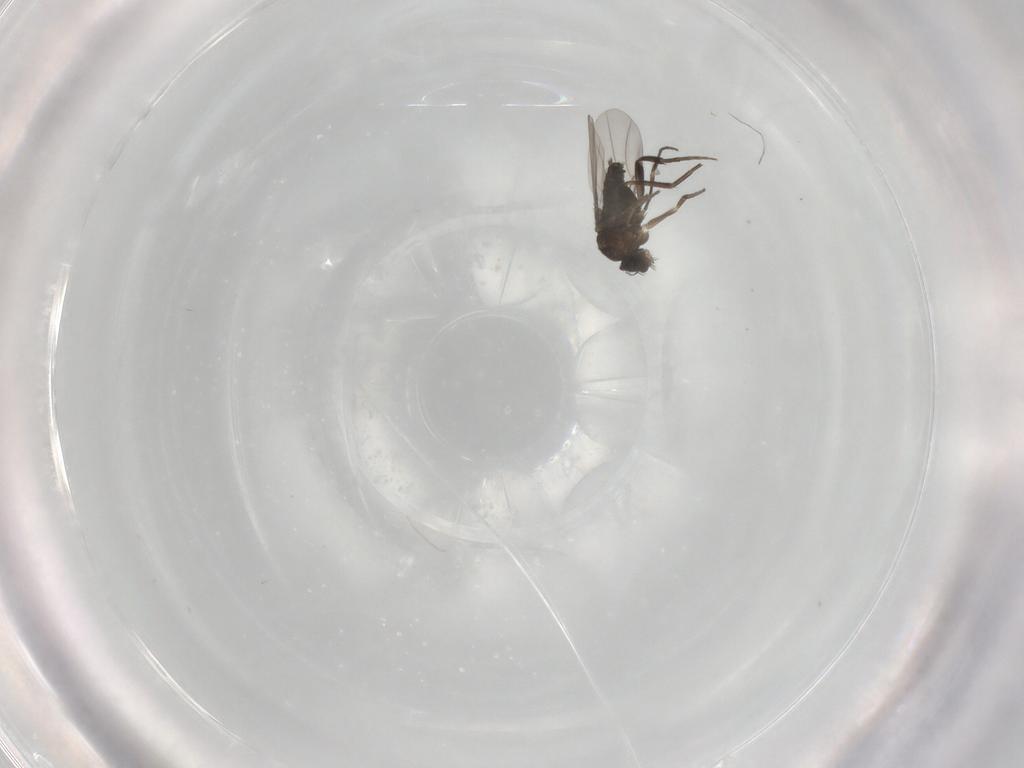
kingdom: Animalia
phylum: Arthropoda
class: Insecta
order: Diptera
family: Phoridae
